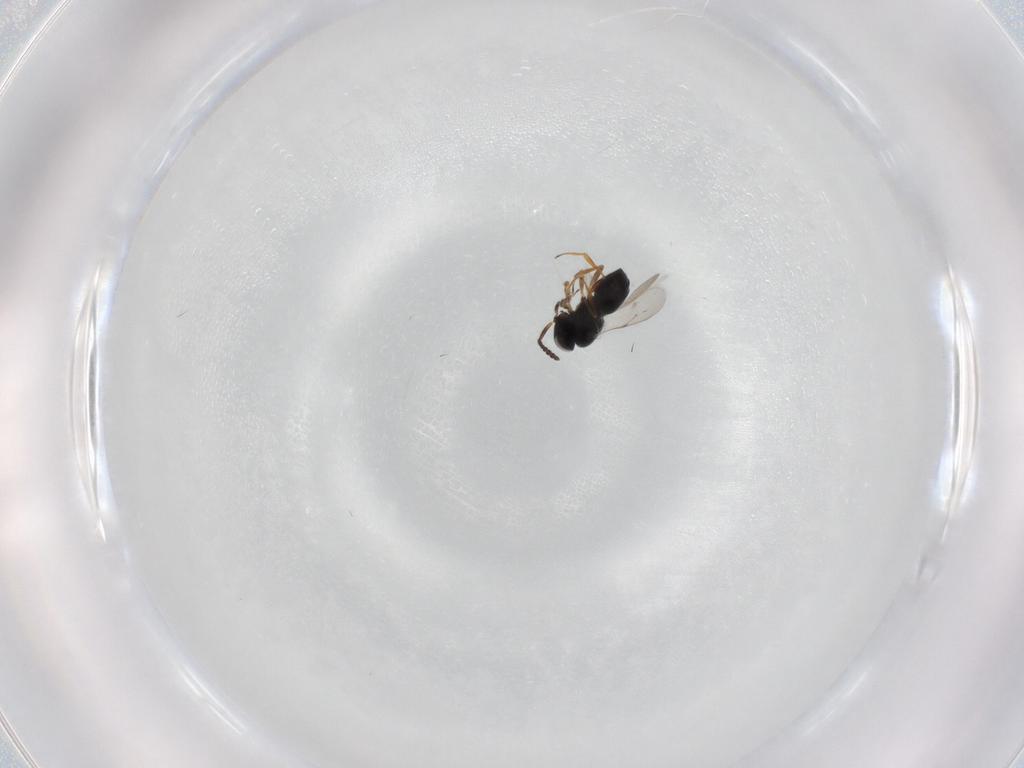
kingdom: Animalia
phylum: Arthropoda
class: Insecta
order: Hymenoptera
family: Scelionidae
